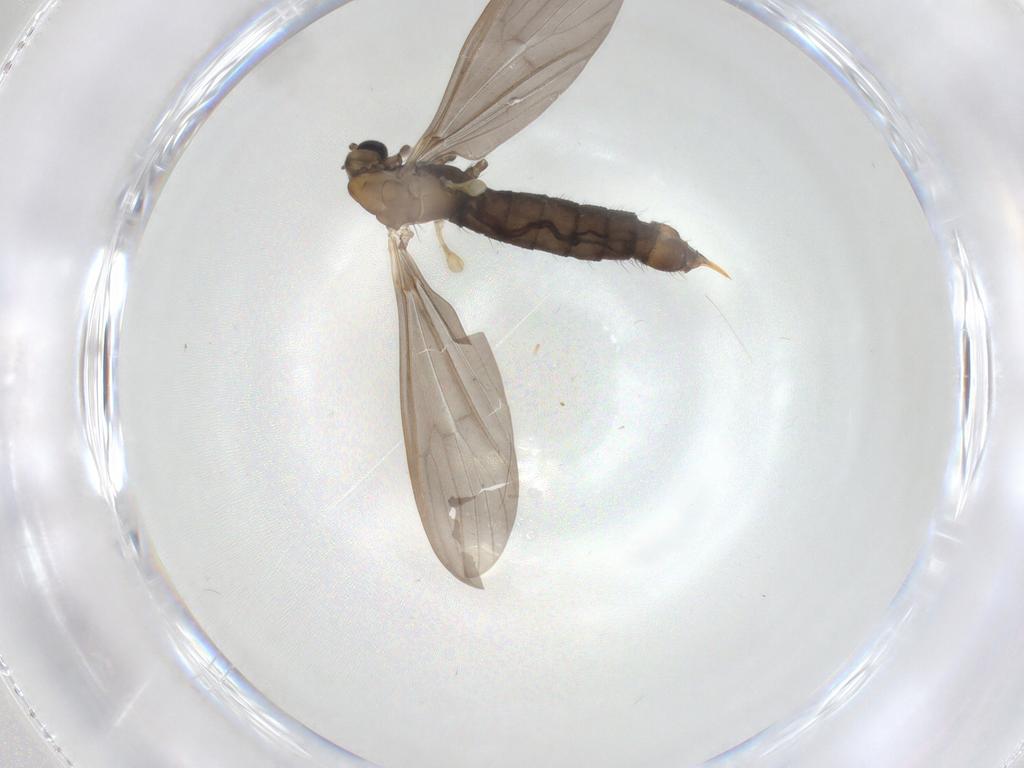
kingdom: Animalia
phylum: Arthropoda
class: Insecta
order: Diptera
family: Limoniidae
